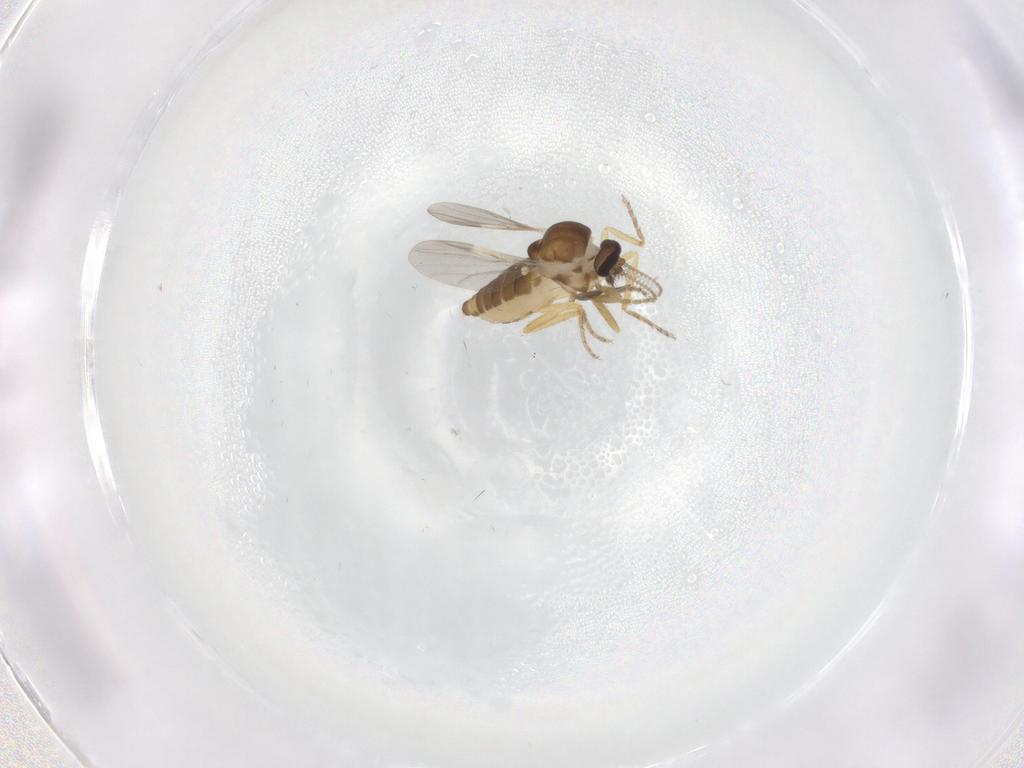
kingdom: Animalia
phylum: Arthropoda
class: Insecta
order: Diptera
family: Ceratopogonidae
